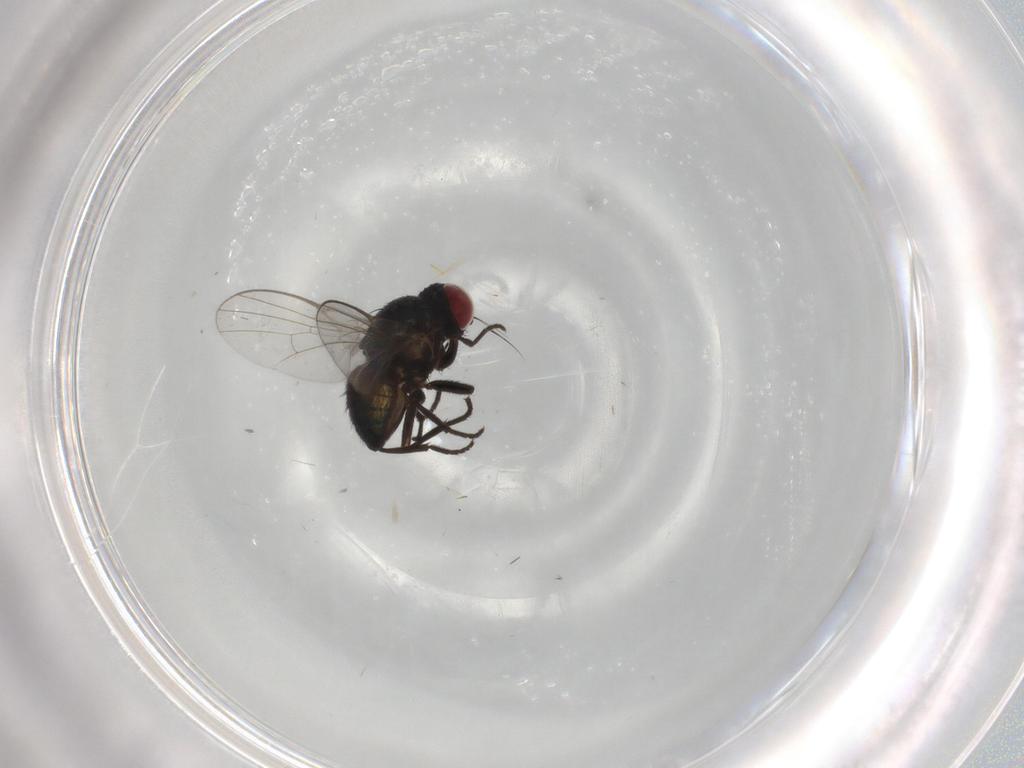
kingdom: Animalia
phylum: Arthropoda
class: Insecta
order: Diptera
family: Agromyzidae
